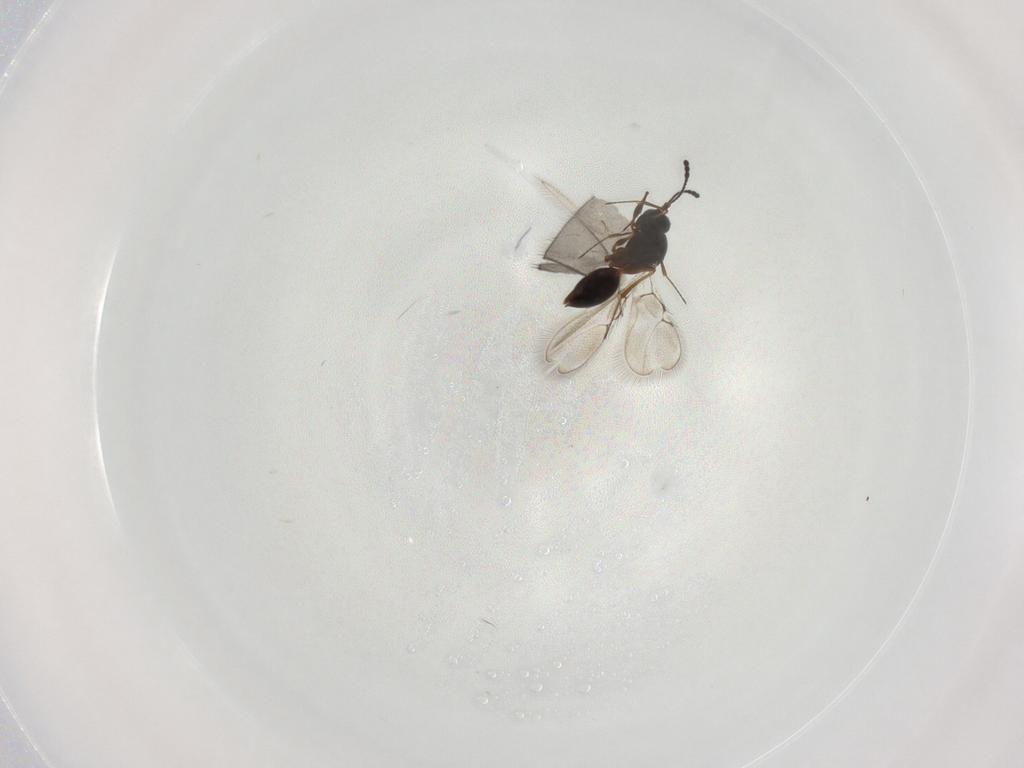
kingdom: Animalia
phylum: Arthropoda
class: Insecta
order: Hymenoptera
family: Figitidae
